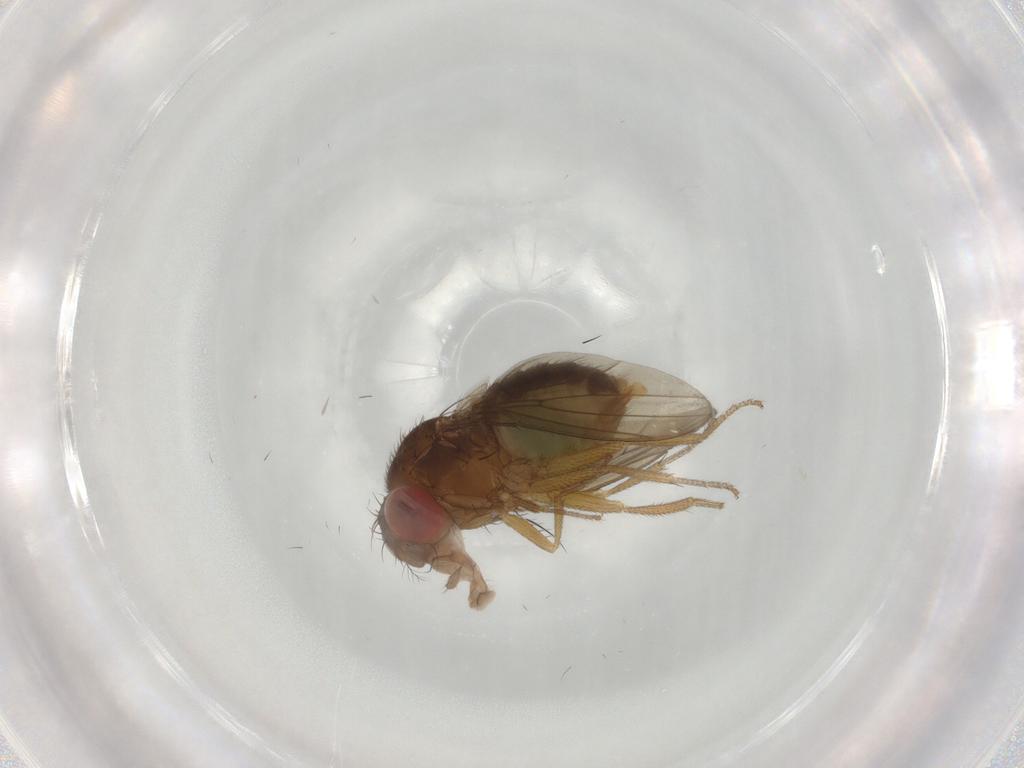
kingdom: Animalia
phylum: Arthropoda
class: Insecta
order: Diptera
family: Drosophilidae
